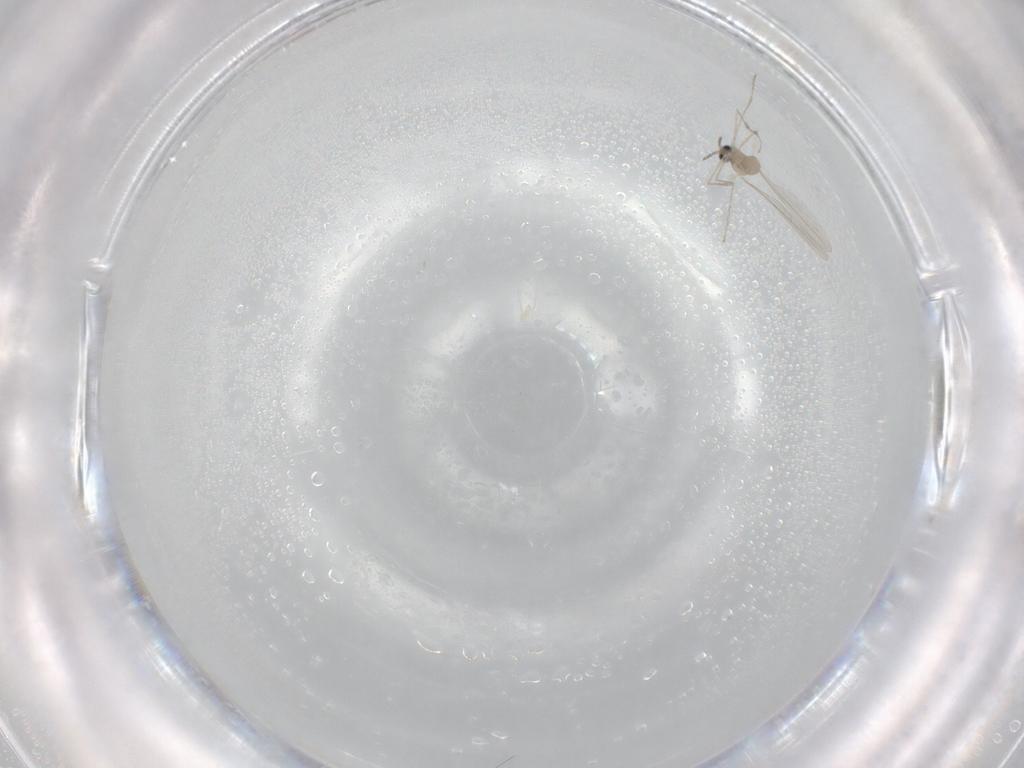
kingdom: Animalia
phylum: Arthropoda
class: Insecta
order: Diptera
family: Cecidomyiidae
